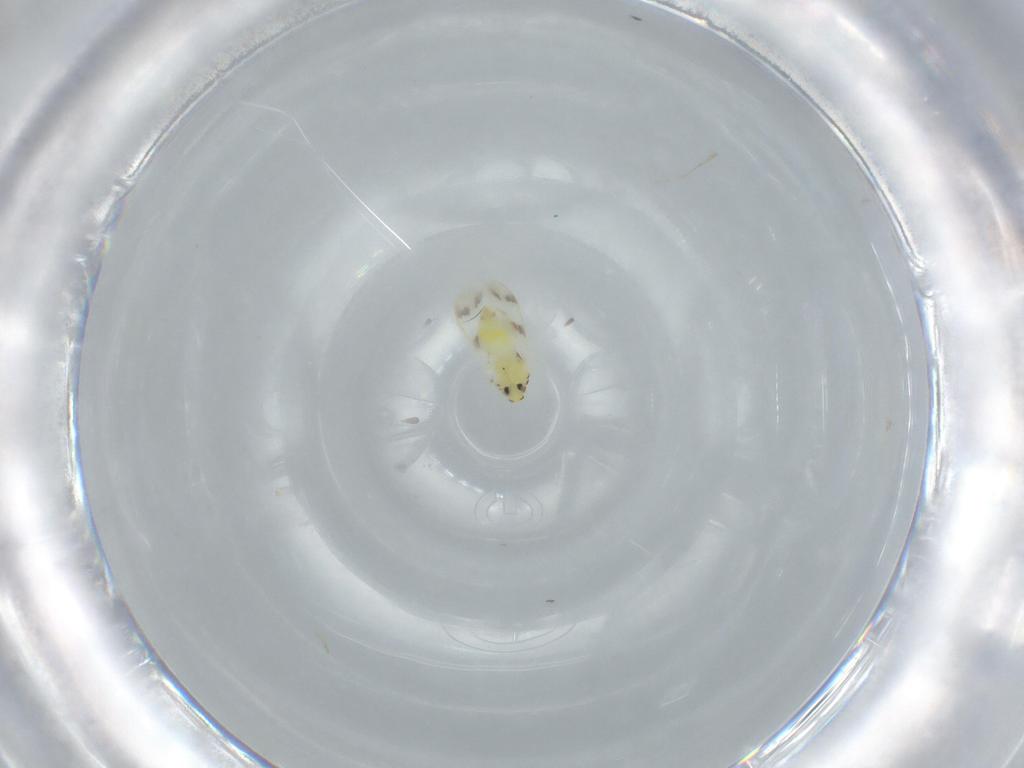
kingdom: Animalia
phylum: Arthropoda
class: Insecta
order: Hemiptera
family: Aleyrodidae
